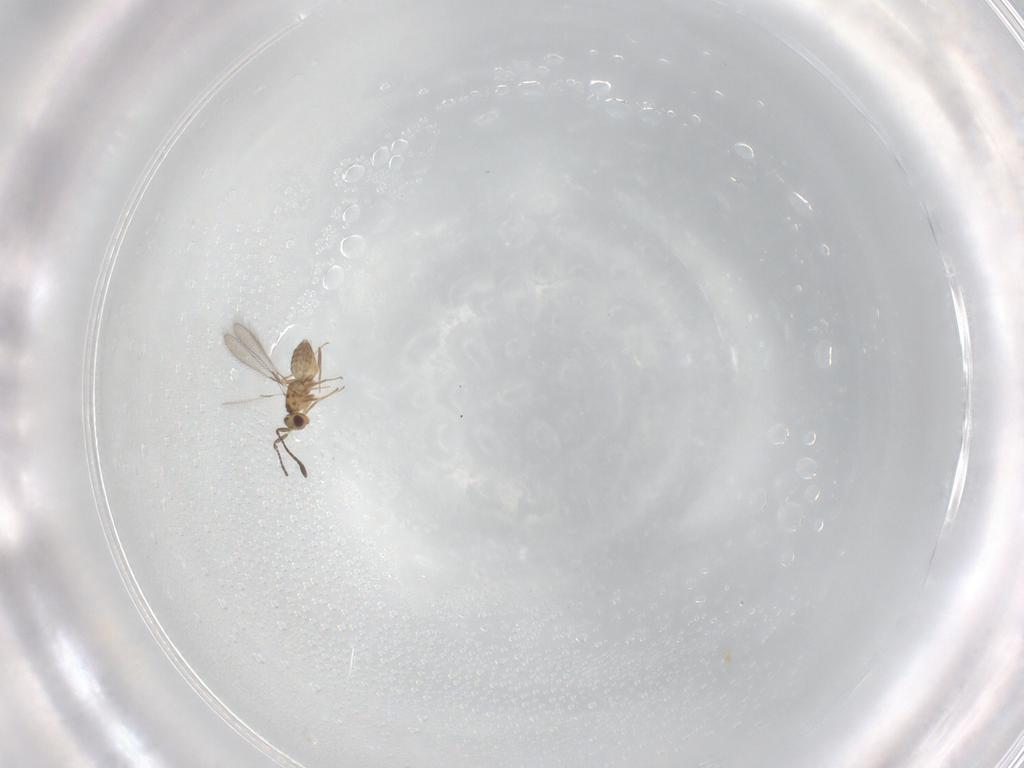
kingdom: Animalia
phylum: Arthropoda
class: Insecta
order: Hymenoptera
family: Mymaridae
